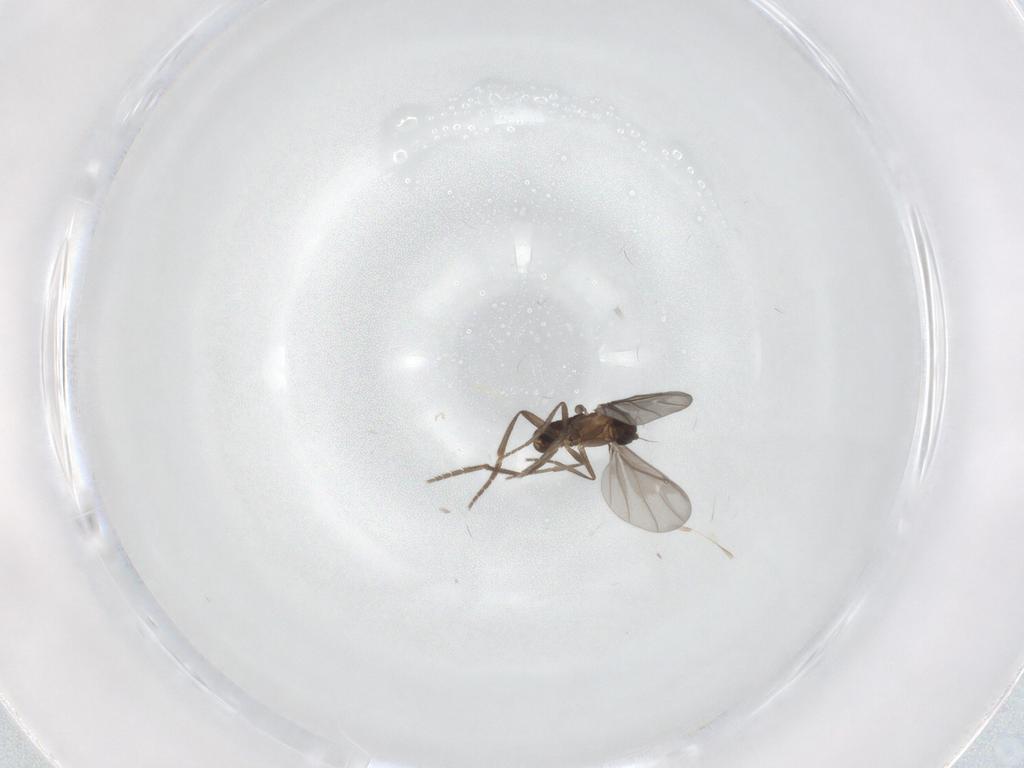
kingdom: Animalia
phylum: Arthropoda
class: Insecta
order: Diptera
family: Phoridae
